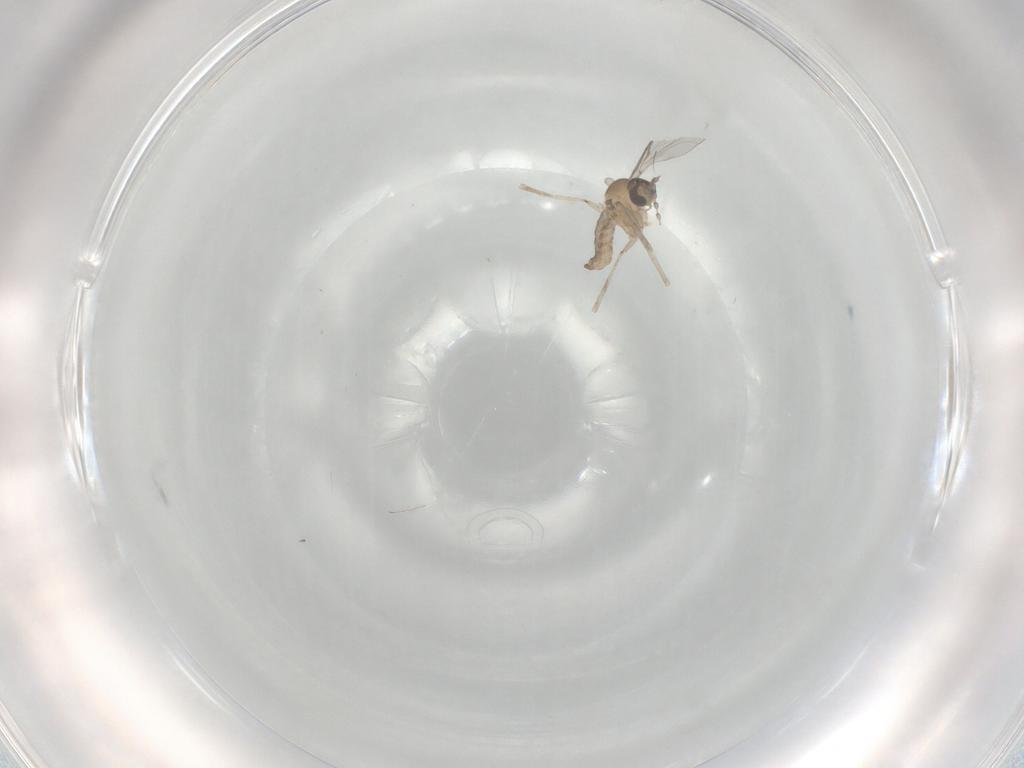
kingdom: Animalia
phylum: Arthropoda
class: Insecta
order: Diptera
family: Cecidomyiidae
